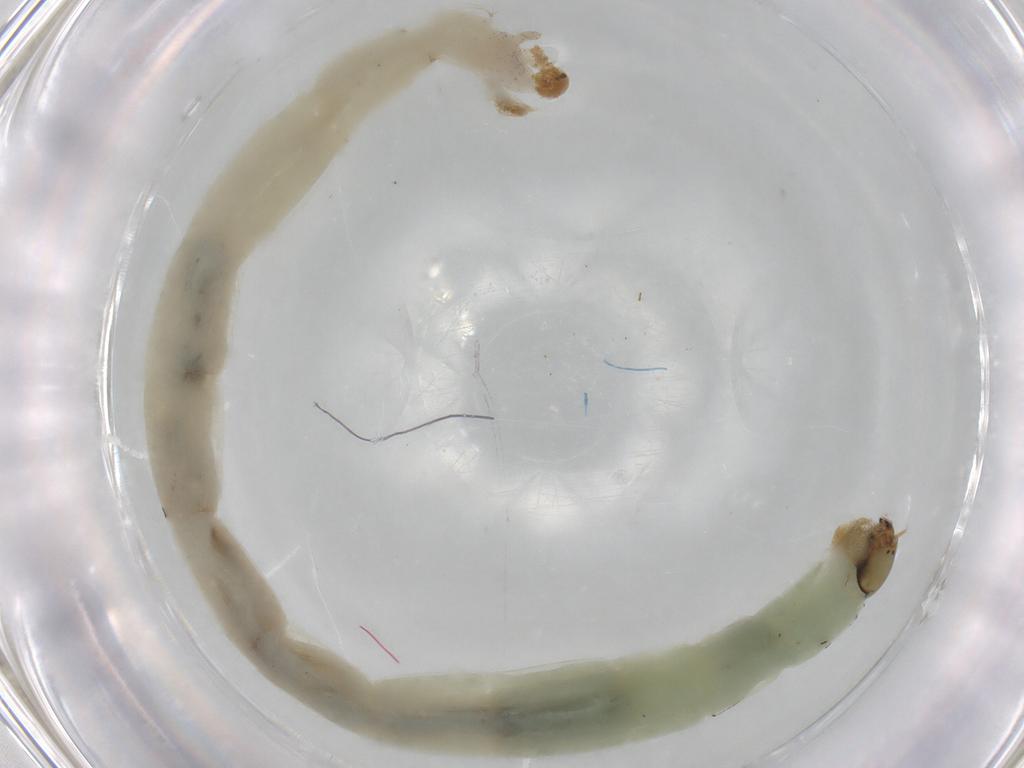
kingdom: Animalia
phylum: Arthropoda
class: Insecta
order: Diptera
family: Chironomidae
